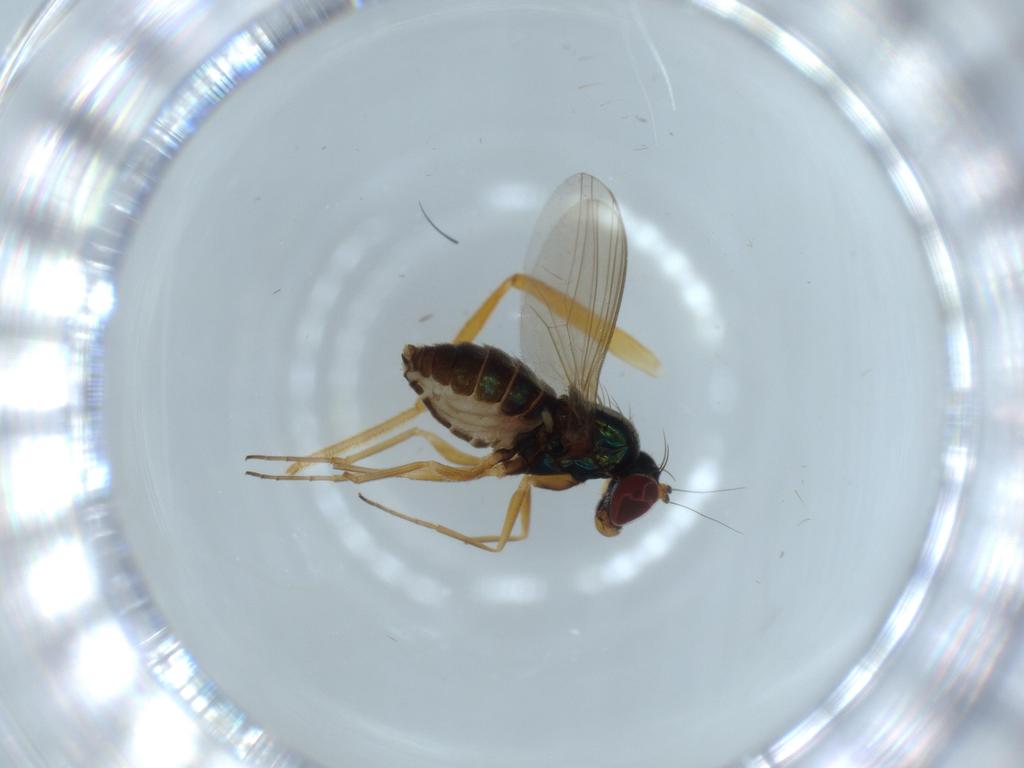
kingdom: Animalia
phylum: Arthropoda
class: Insecta
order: Diptera
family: Dolichopodidae
